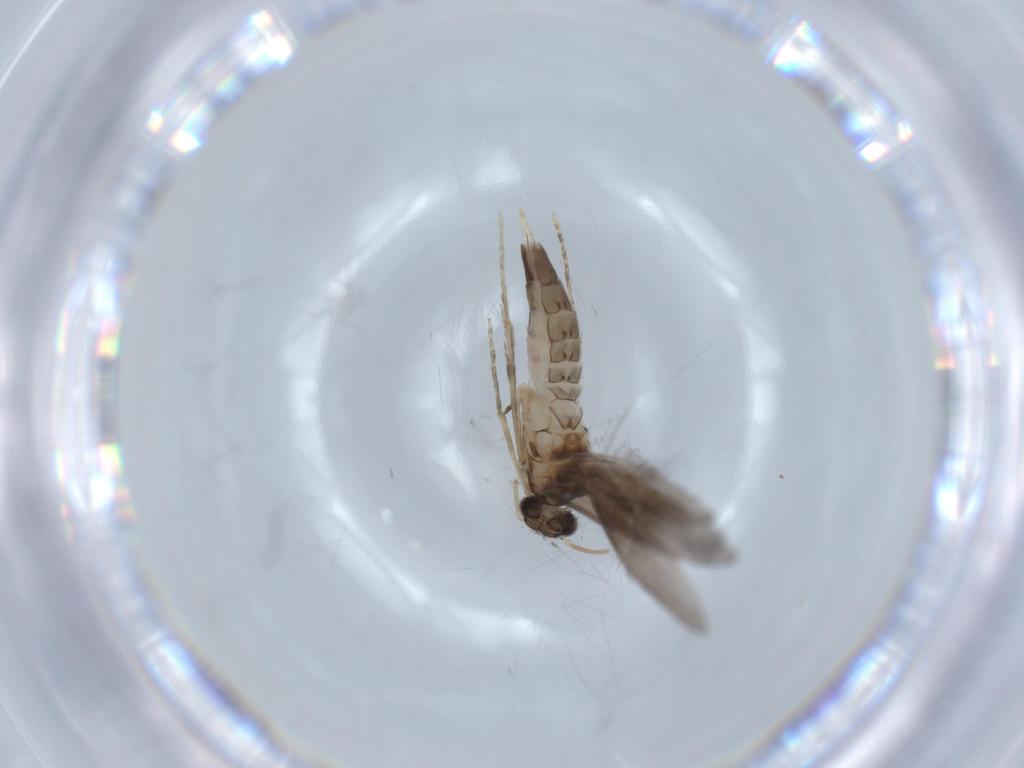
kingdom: Animalia
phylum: Arthropoda
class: Insecta
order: Trichoptera
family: Hydroptilidae
